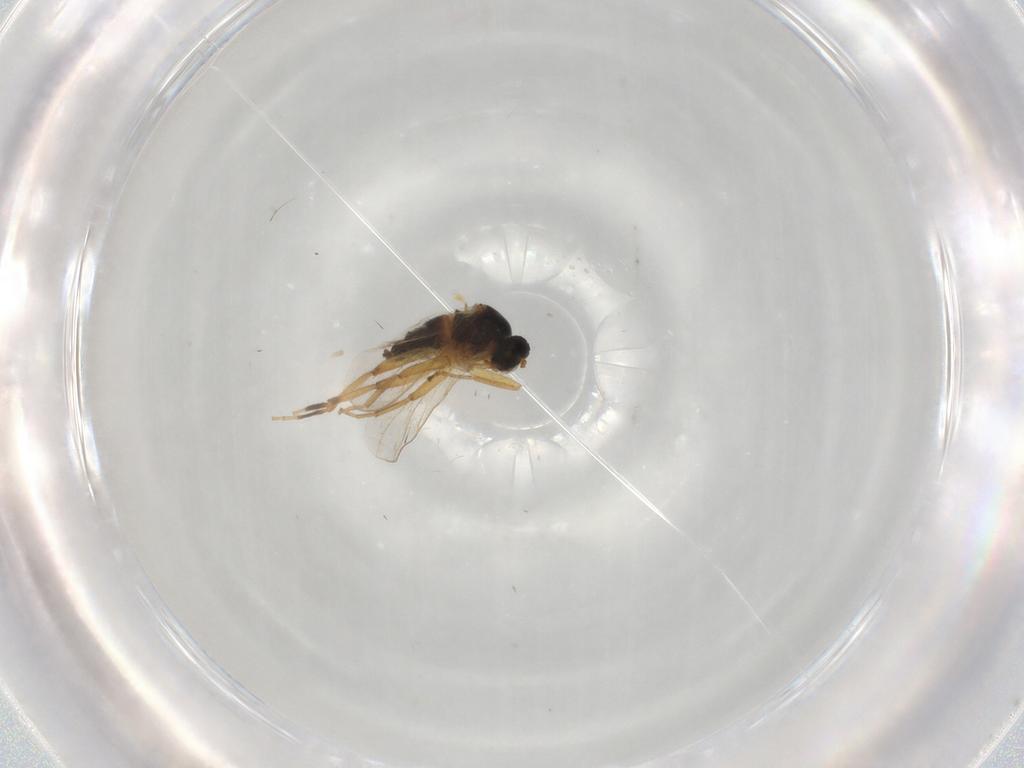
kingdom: Animalia
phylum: Arthropoda
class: Insecta
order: Diptera
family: Hybotidae
